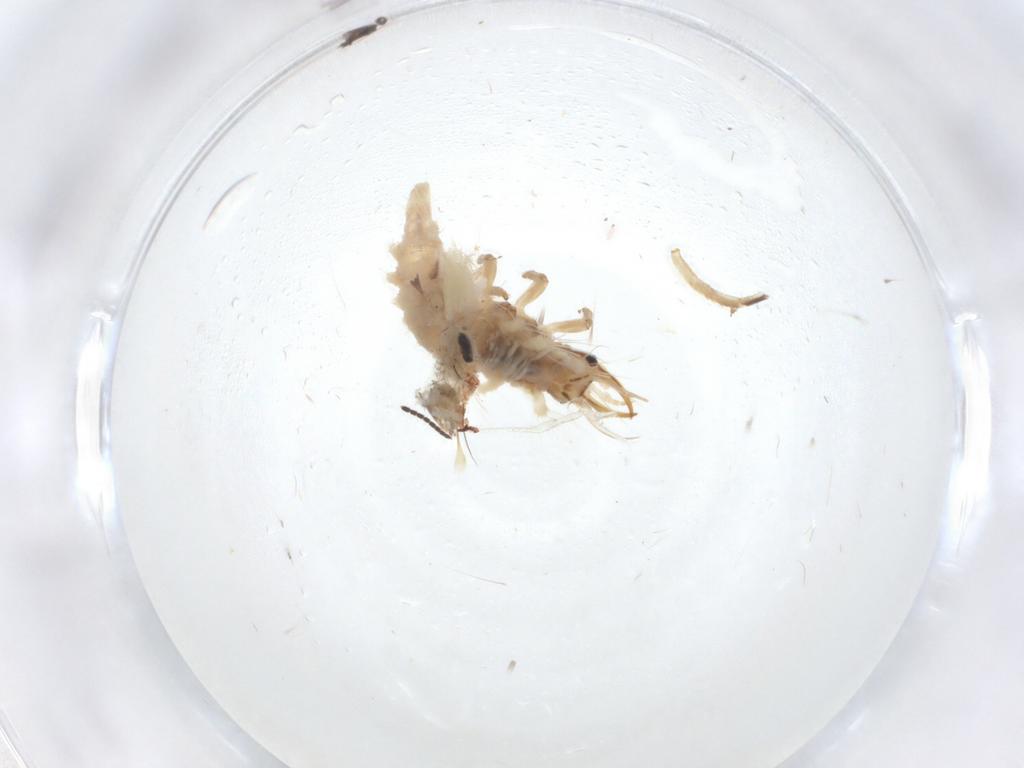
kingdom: Animalia
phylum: Arthropoda
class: Insecta
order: Neuroptera
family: Chrysopidae
